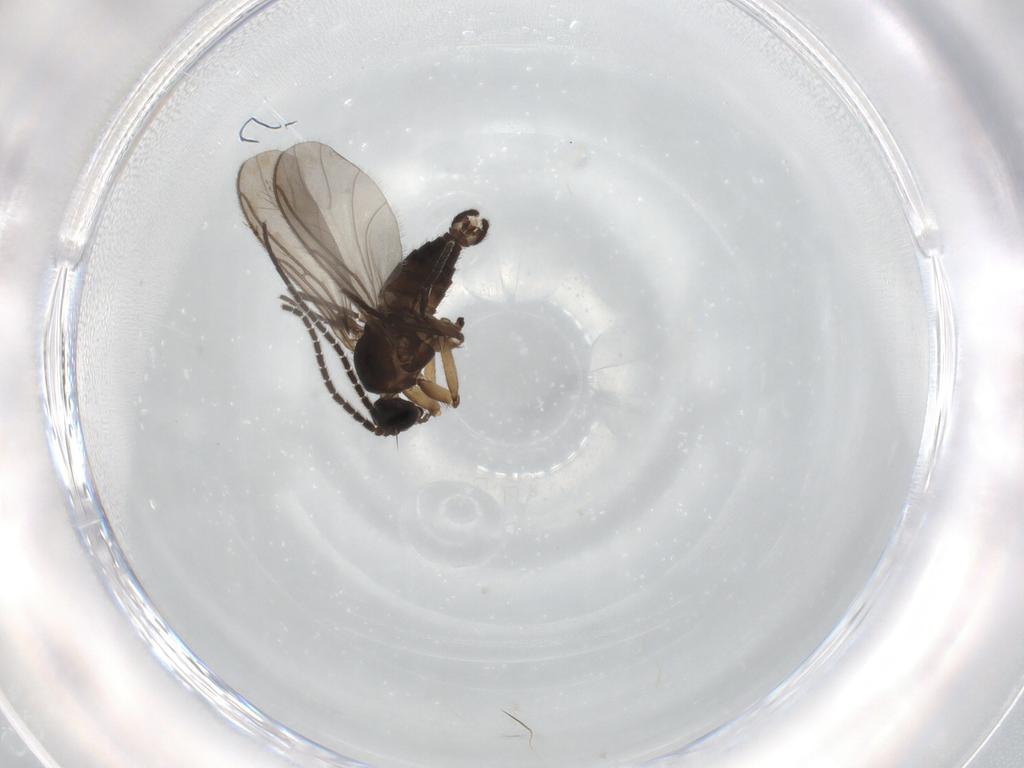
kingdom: Animalia
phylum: Arthropoda
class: Insecta
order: Diptera
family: Sciaridae
